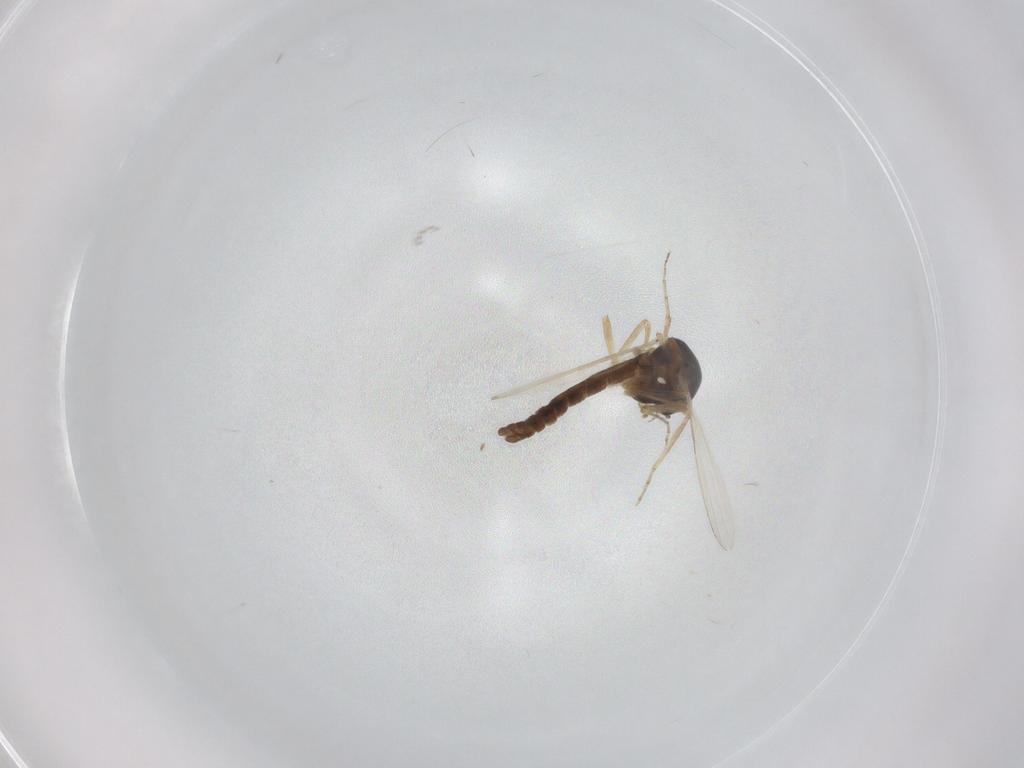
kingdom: Animalia
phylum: Arthropoda
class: Insecta
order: Diptera
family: Ceratopogonidae
